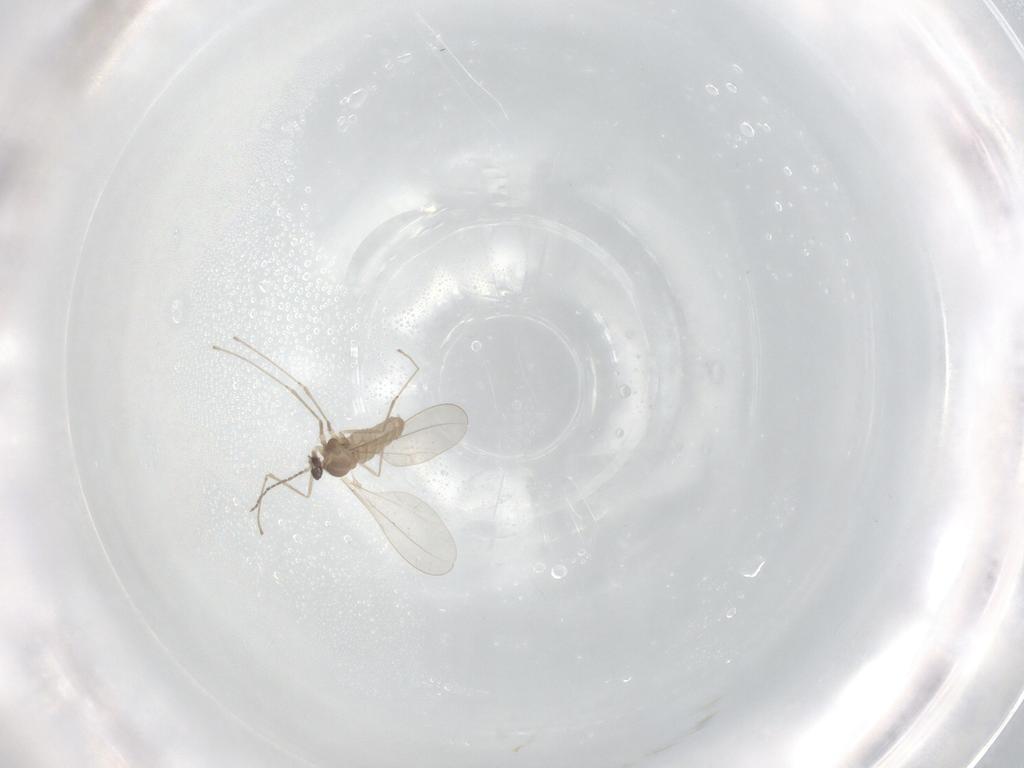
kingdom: Animalia
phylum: Arthropoda
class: Insecta
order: Diptera
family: Cecidomyiidae
